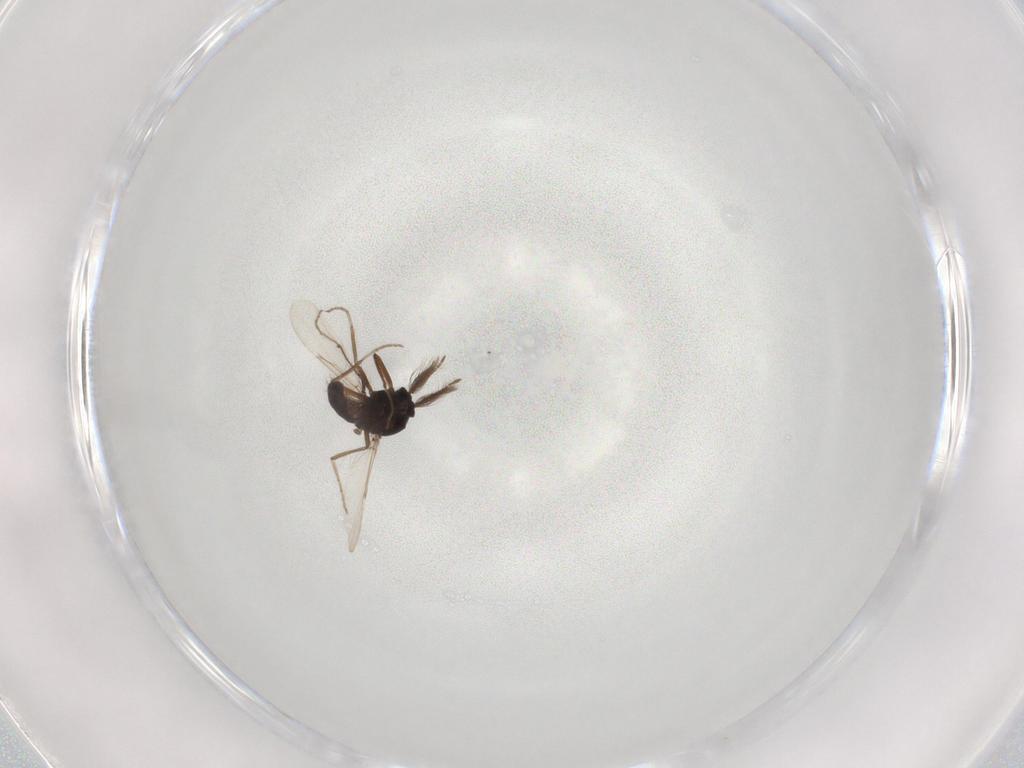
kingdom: Animalia
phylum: Arthropoda
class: Insecta
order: Diptera
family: Chironomidae
